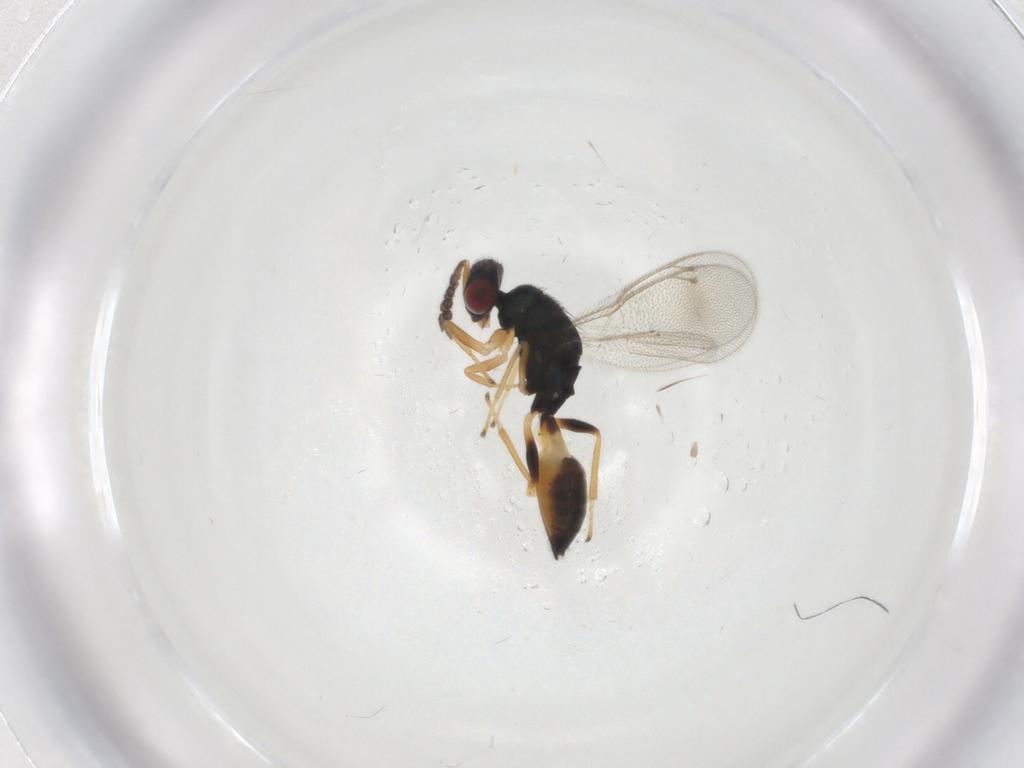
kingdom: Animalia
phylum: Arthropoda
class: Insecta
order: Hymenoptera
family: Eulophidae
